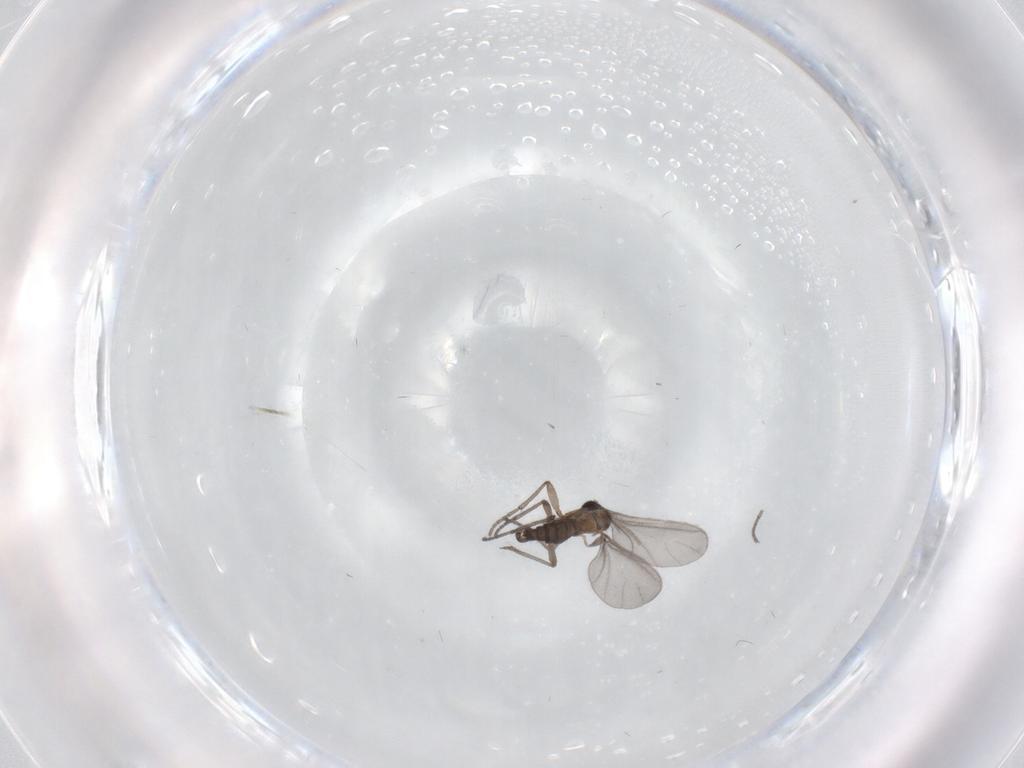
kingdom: Animalia
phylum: Arthropoda
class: Insecta
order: Diptera
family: Sciaridae
